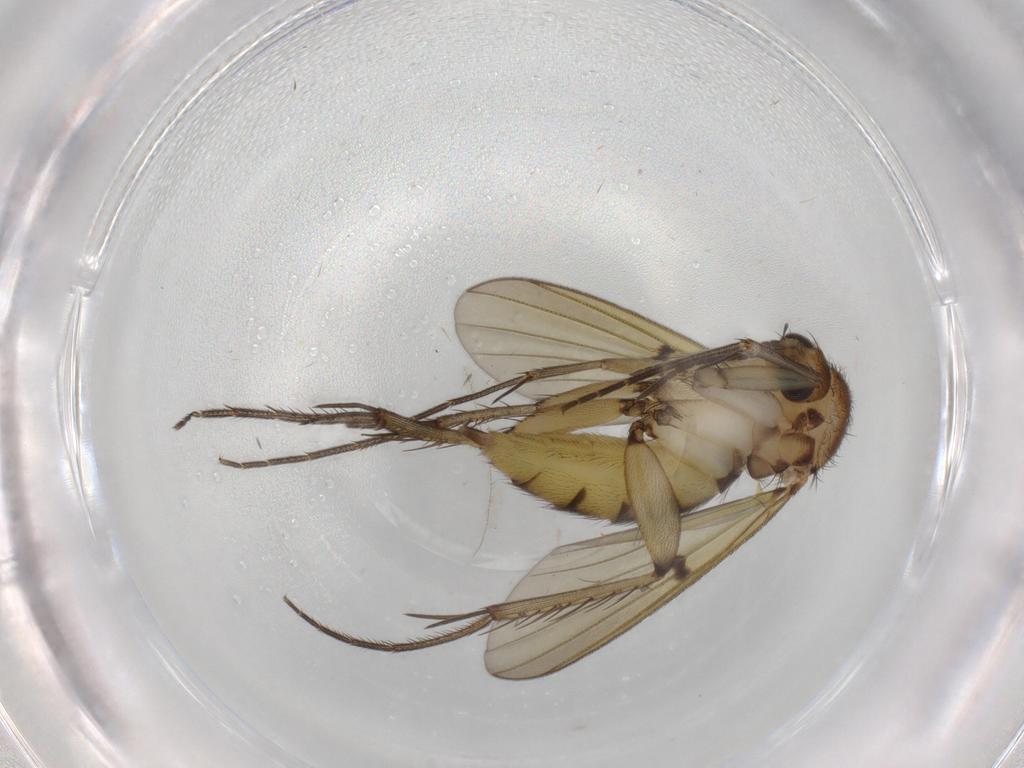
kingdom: Animalia
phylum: Arthropoda
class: Insecta
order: Diptera
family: Mycetophilidae
